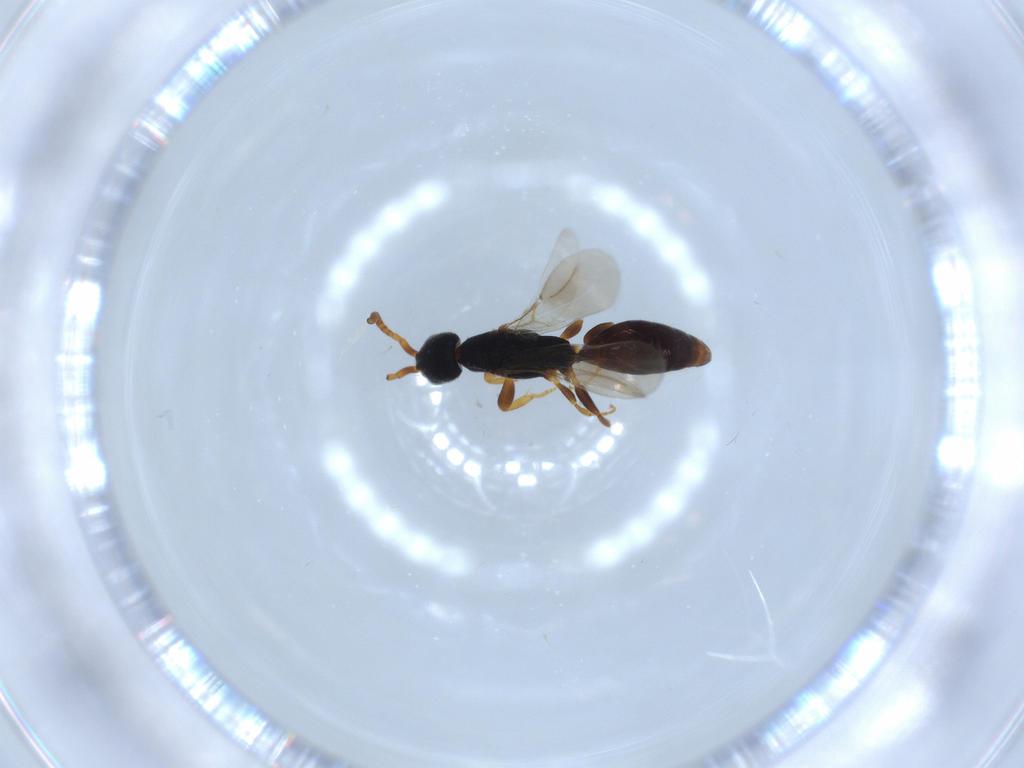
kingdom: Animalia
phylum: Arthropoda
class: Insecta
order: Hymenoptera
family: Bethylidae
